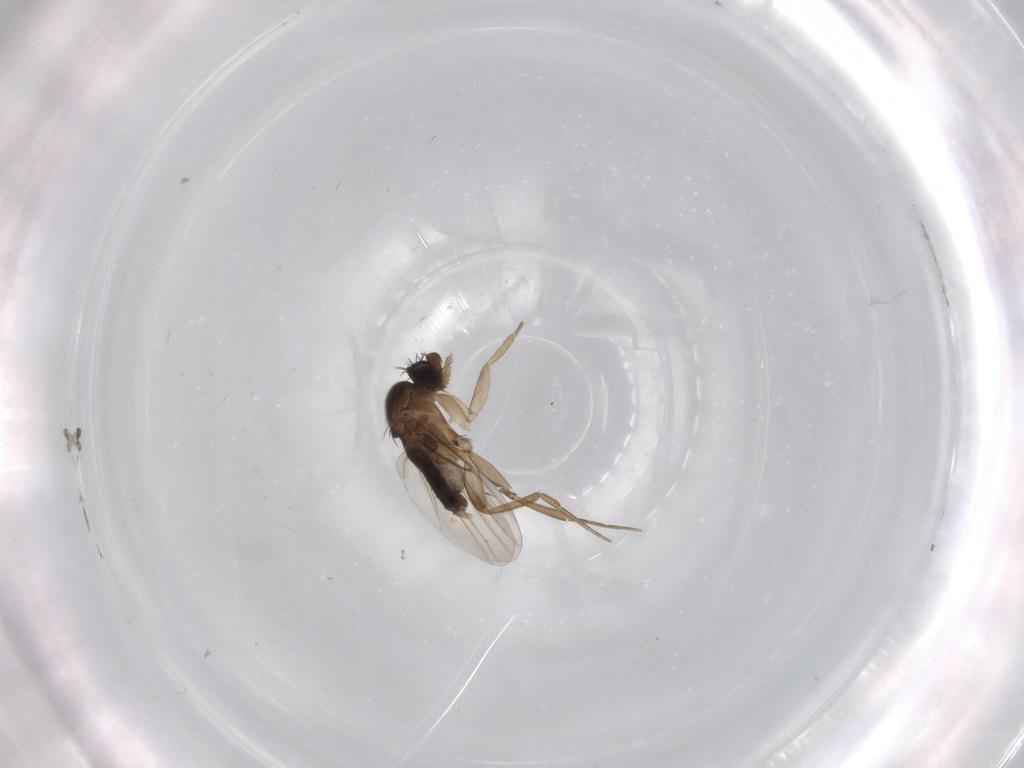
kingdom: Animalia
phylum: Arthropoda
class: Insecta
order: Diptera
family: Phoridae
